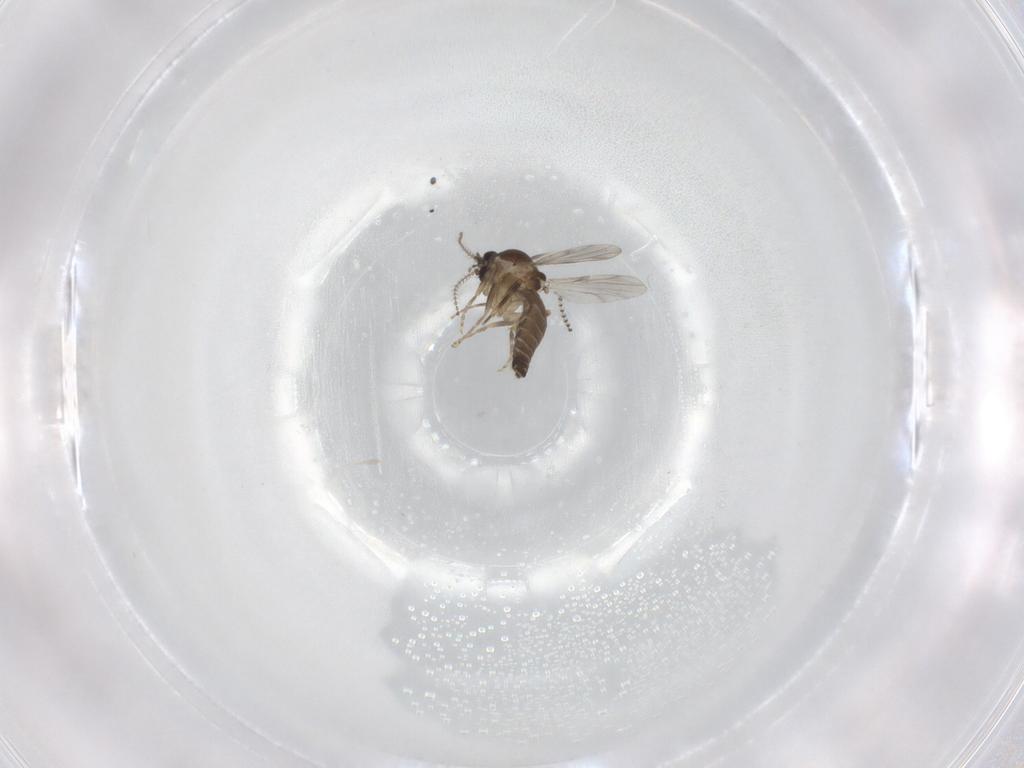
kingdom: Animalia
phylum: Arthropoda
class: Insecta
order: Diptera
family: Ceratopogonidae
